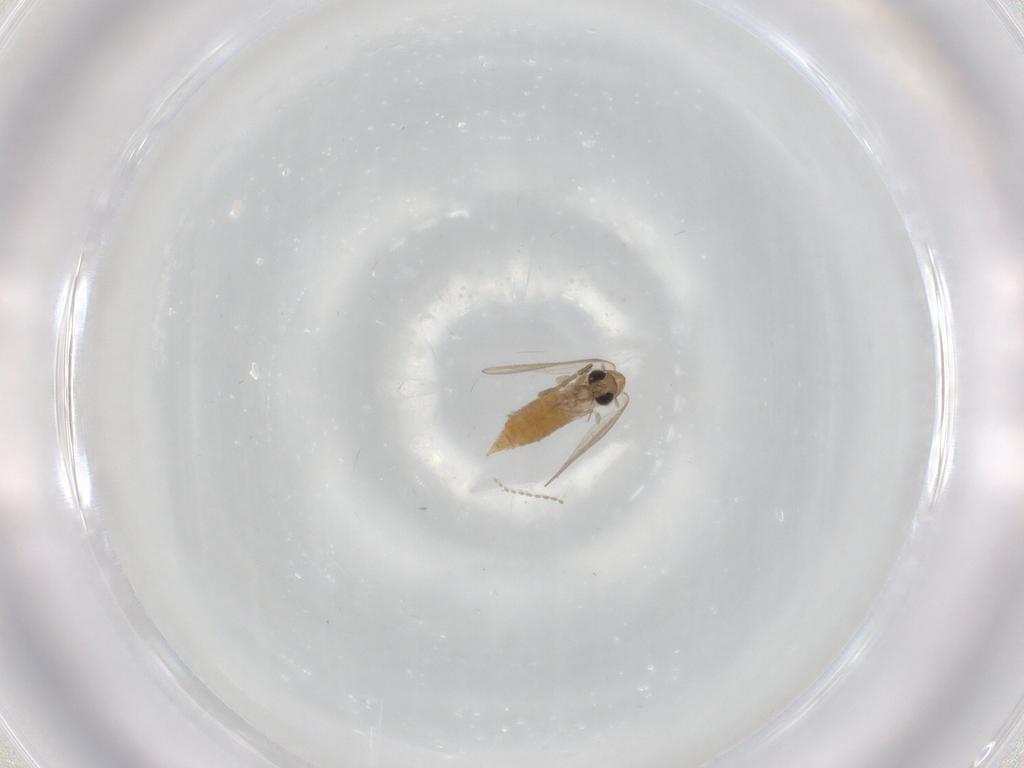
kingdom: Animalia
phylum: Arthropoda
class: Insecta
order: Diptera
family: Psychodidae
